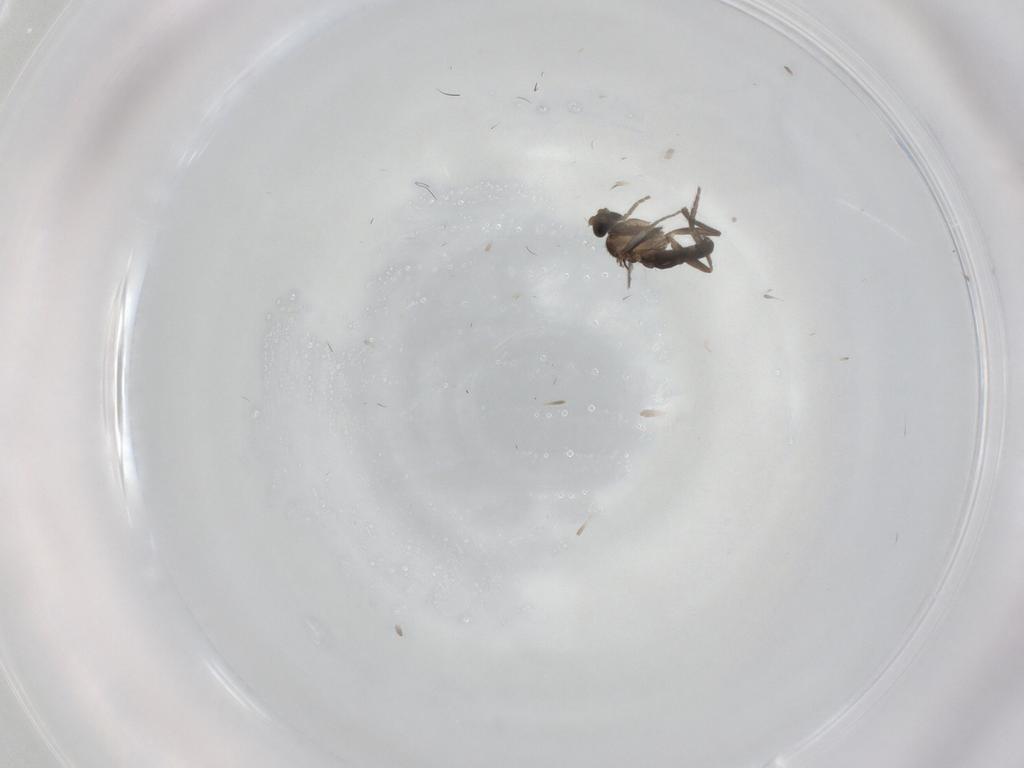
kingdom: Animalia
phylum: Arthropoda
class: Insecta
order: Diptera
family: Phoridae
